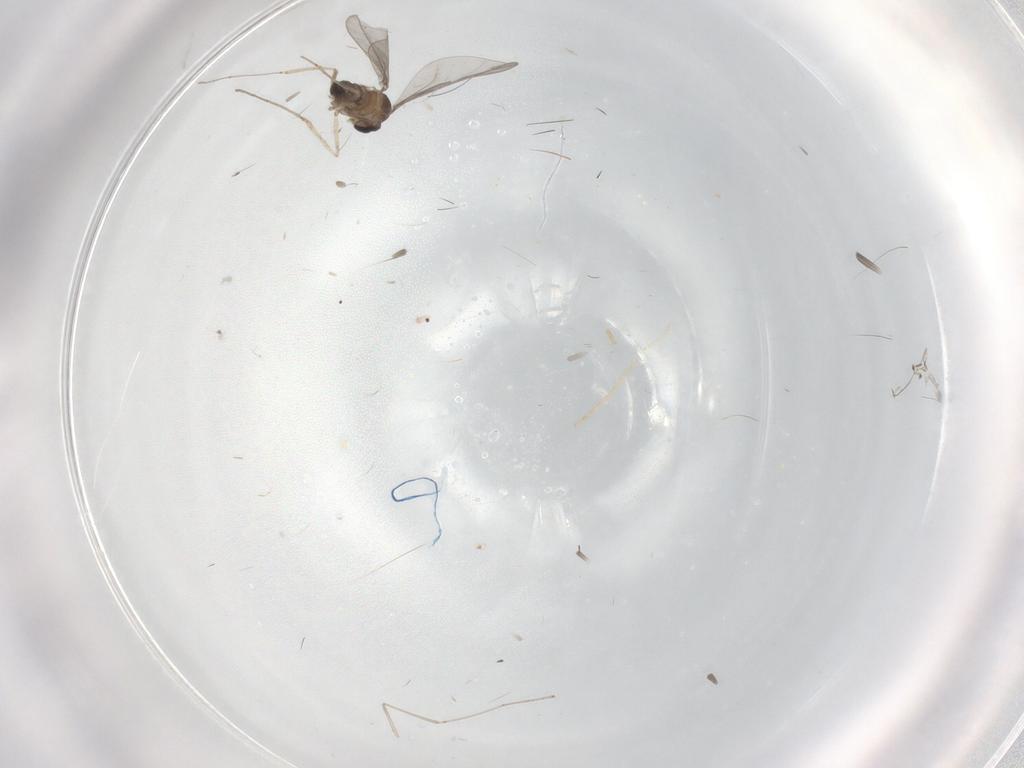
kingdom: Animalia
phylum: Arthropoda
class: Insecta
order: Diptera
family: Cecidomyiidae
